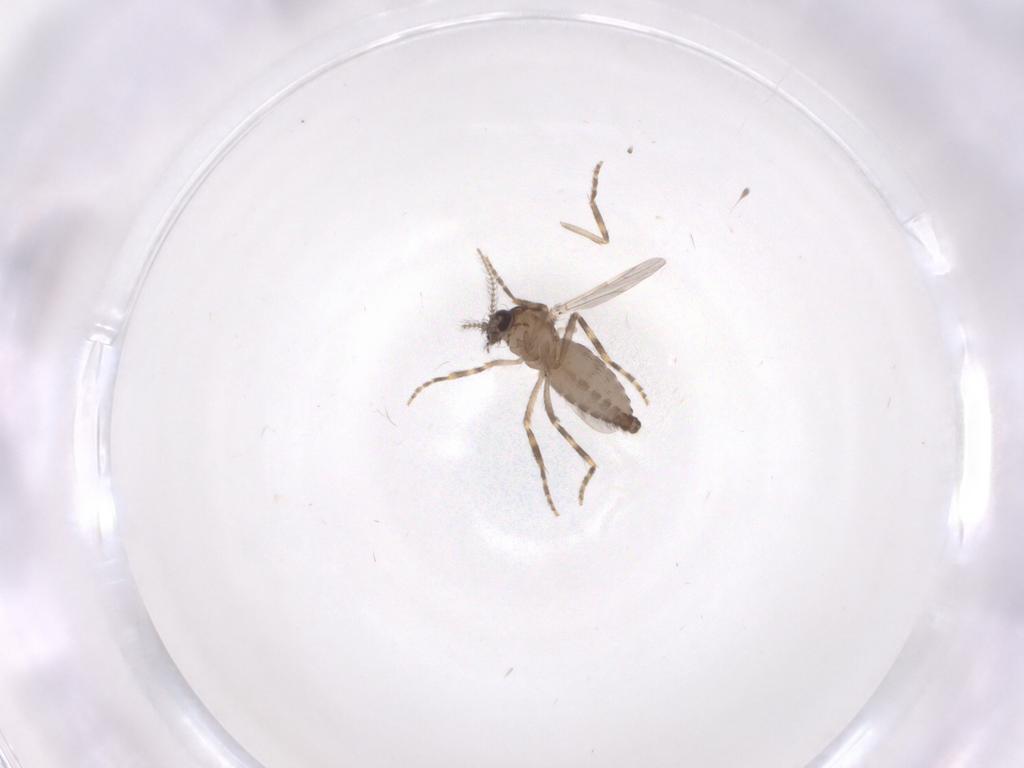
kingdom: Animalia
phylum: Arthropoda
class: Insecta
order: Diptera
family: Ceratopogonidae
